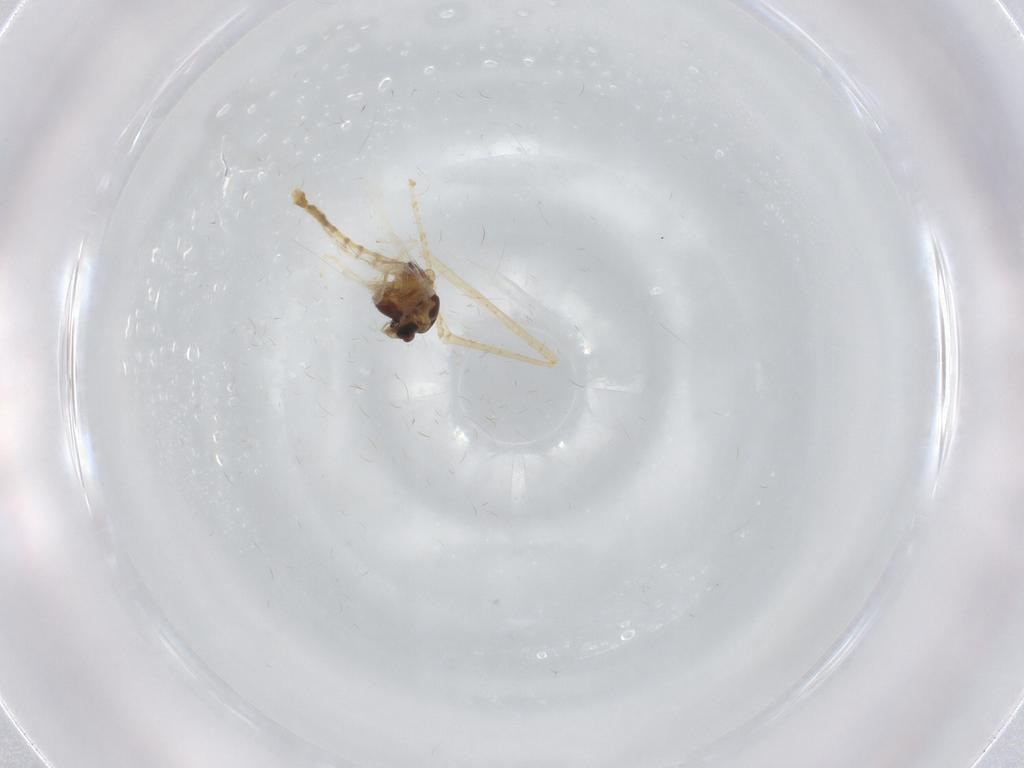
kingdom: Animalia
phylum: Arthropoda
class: Insecta
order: Diptera
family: Chironomidae
